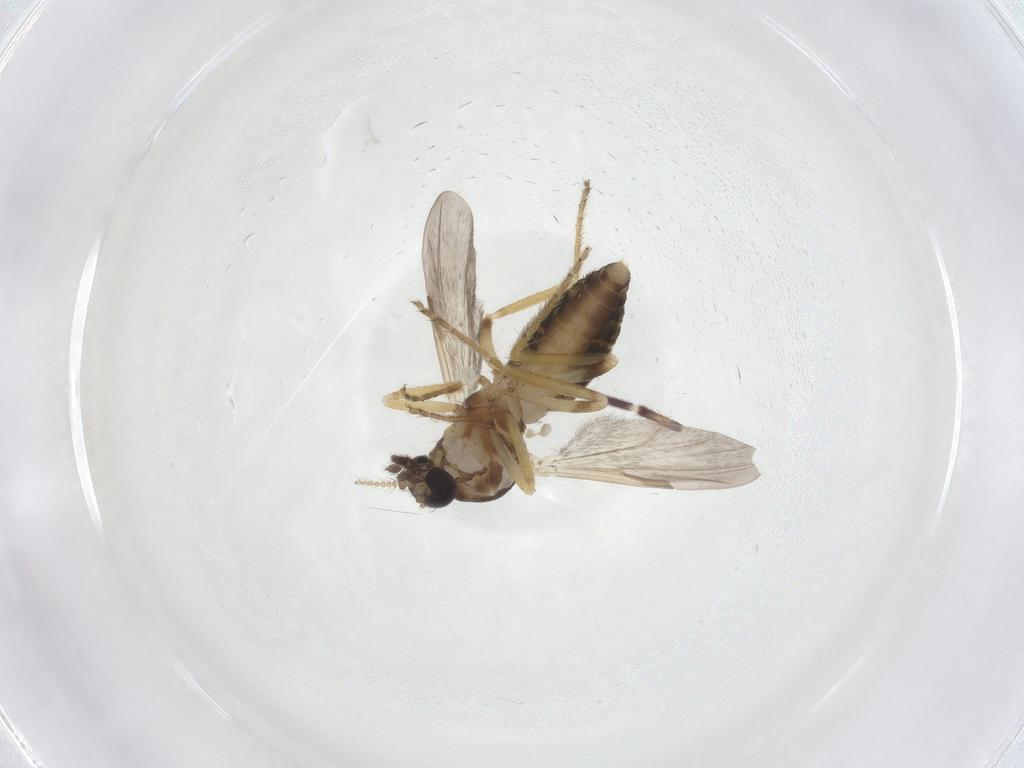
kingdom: Animalia
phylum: Arthropoda
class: Insecta
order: Diptera
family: Ceratopogonidae
